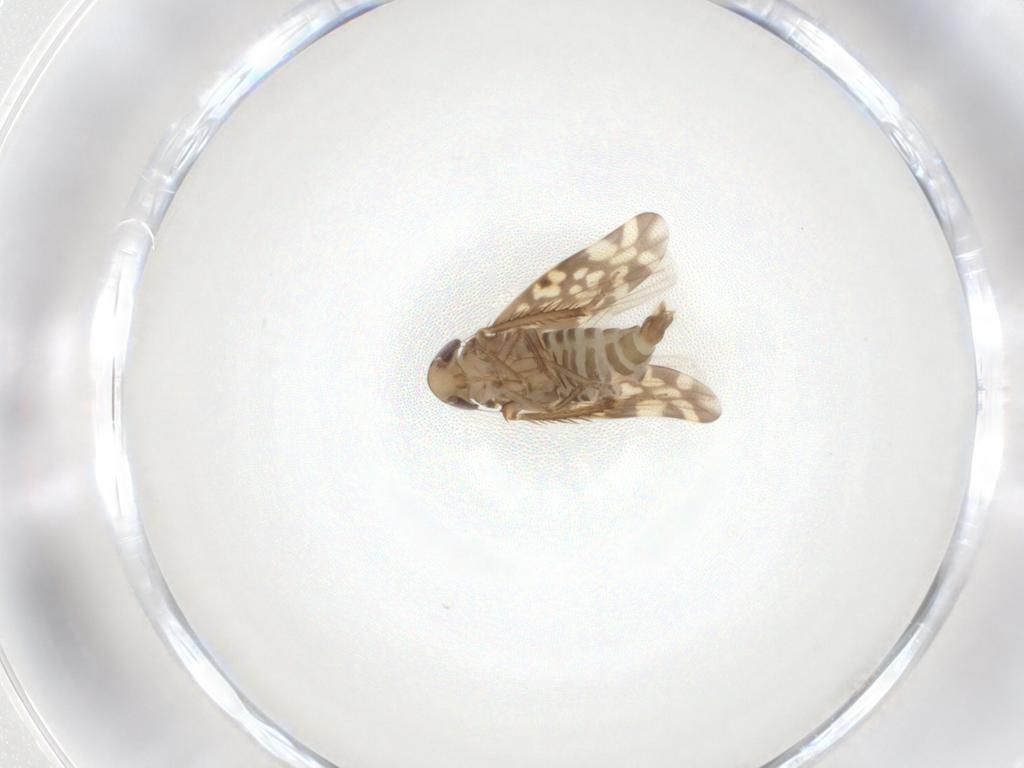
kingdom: Animalia
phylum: Arthropoda
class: Insecta
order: Hemiptera
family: Cicadellidae
